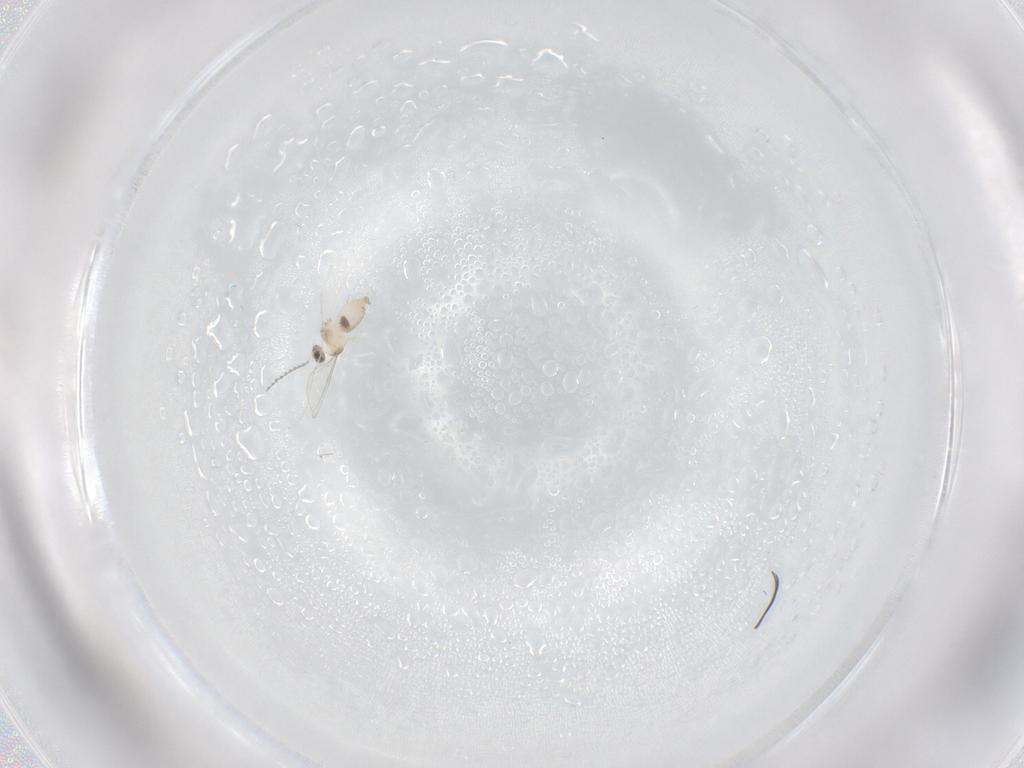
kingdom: Animalia
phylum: Arthropoda
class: Insecta
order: Diptera
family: Cecidomyiidae
